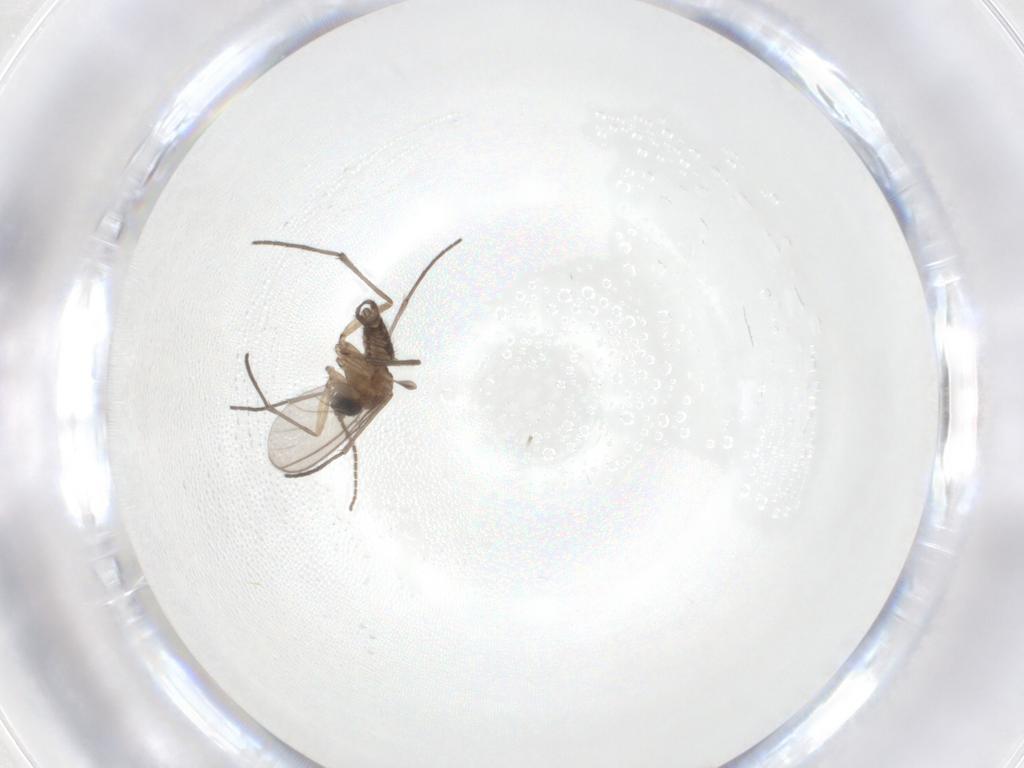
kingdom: Animalia
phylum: Arthropoda
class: Insecta
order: Diptera
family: Sciaridae
